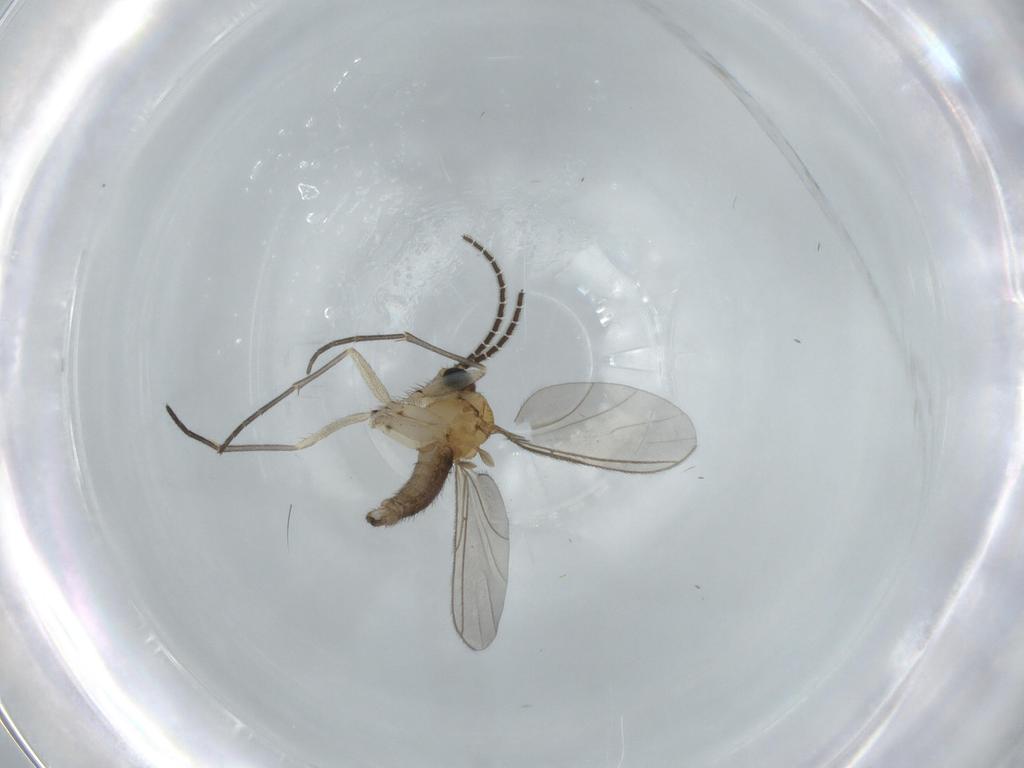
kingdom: Animalia
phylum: Arthropoda
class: Insecta
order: Diptera
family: Sciaridae
